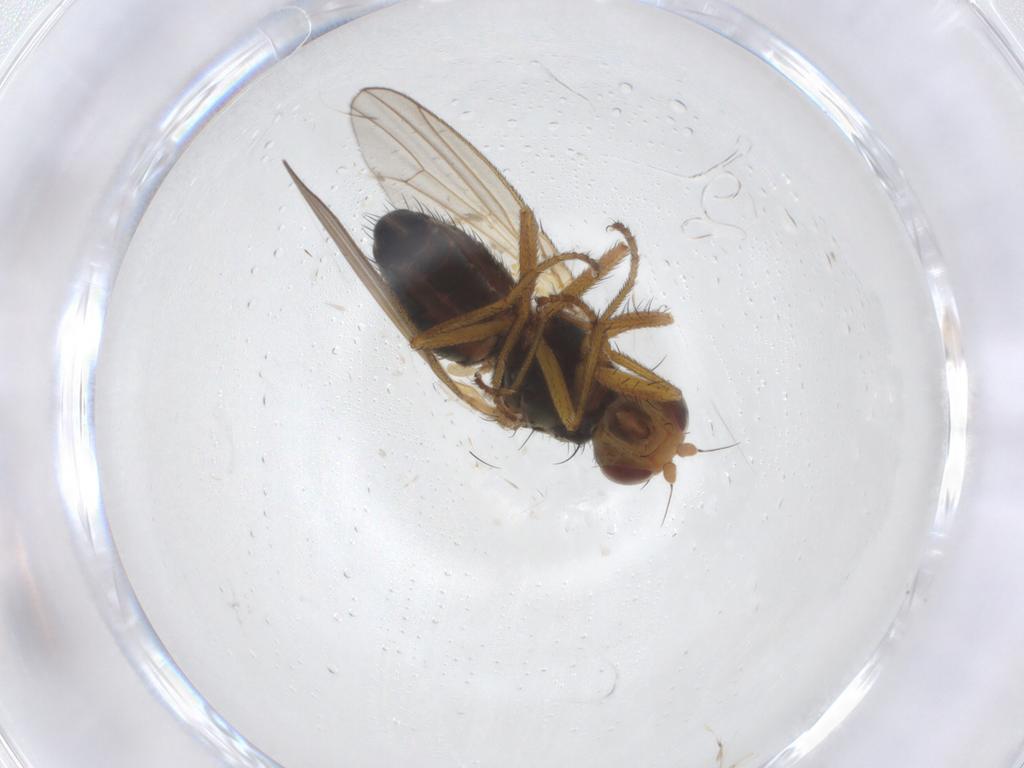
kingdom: Animalia
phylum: Arthropoda
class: Insecta
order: Diptera
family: Heleomyzidae
